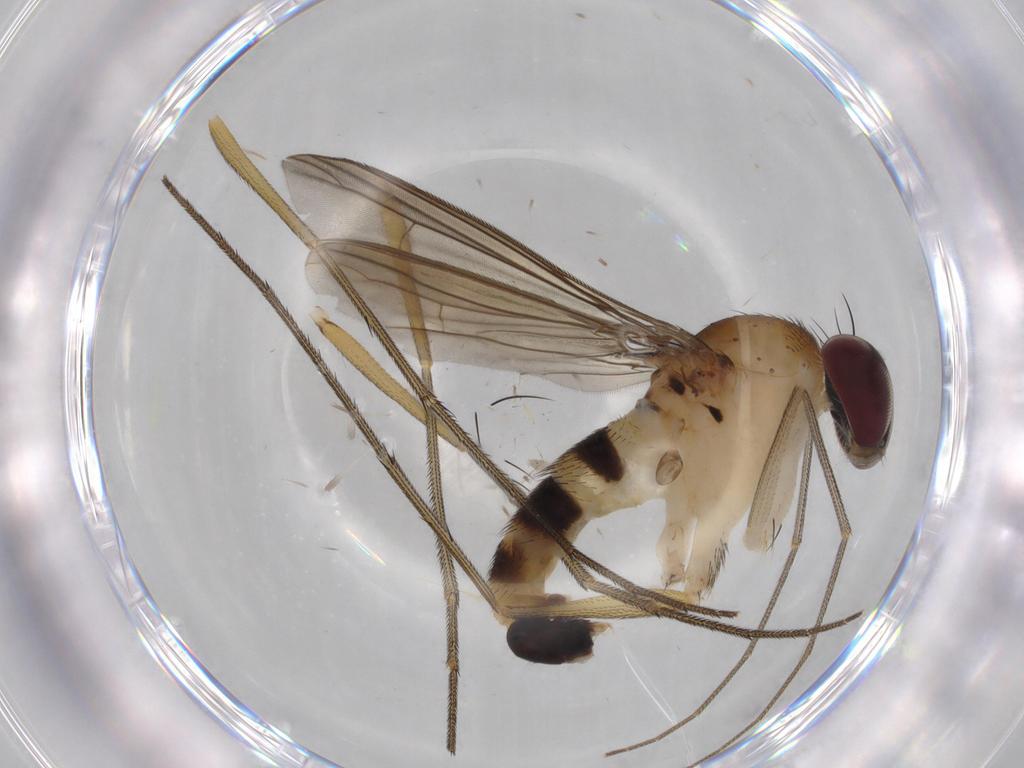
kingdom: Animalia
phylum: Arthropoda
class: Insecta
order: Diptera
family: Dolichopodidae
